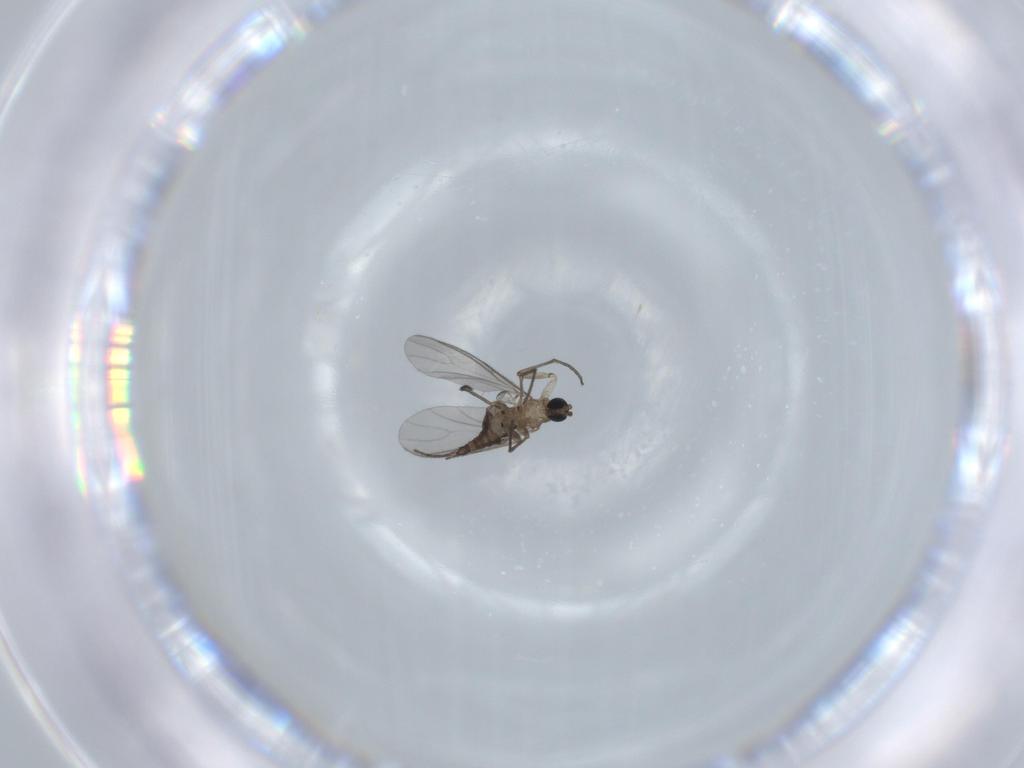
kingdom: Animalia
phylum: Arthropoda
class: Insecta
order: Diptera
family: Sciaridae
